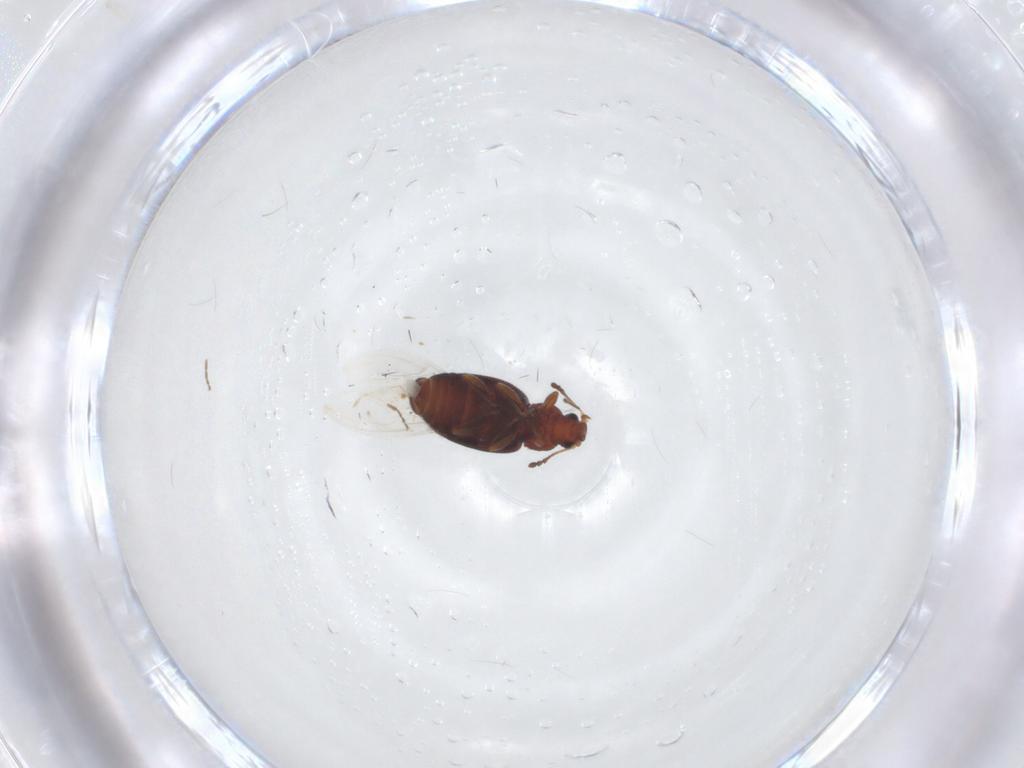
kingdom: Animalia
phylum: Arthropoda
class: Insecta
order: Coleoptera
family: Latridiidae
